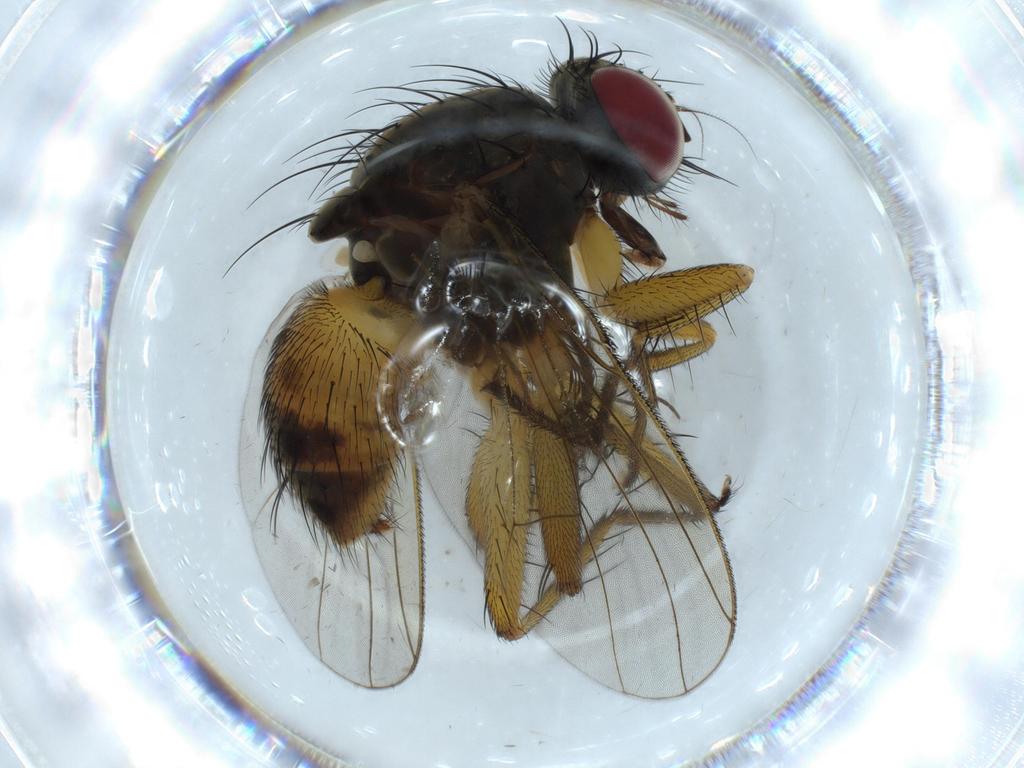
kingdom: Animalia
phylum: Arthropoda
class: Insecta
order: Diptera
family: Muscidae
